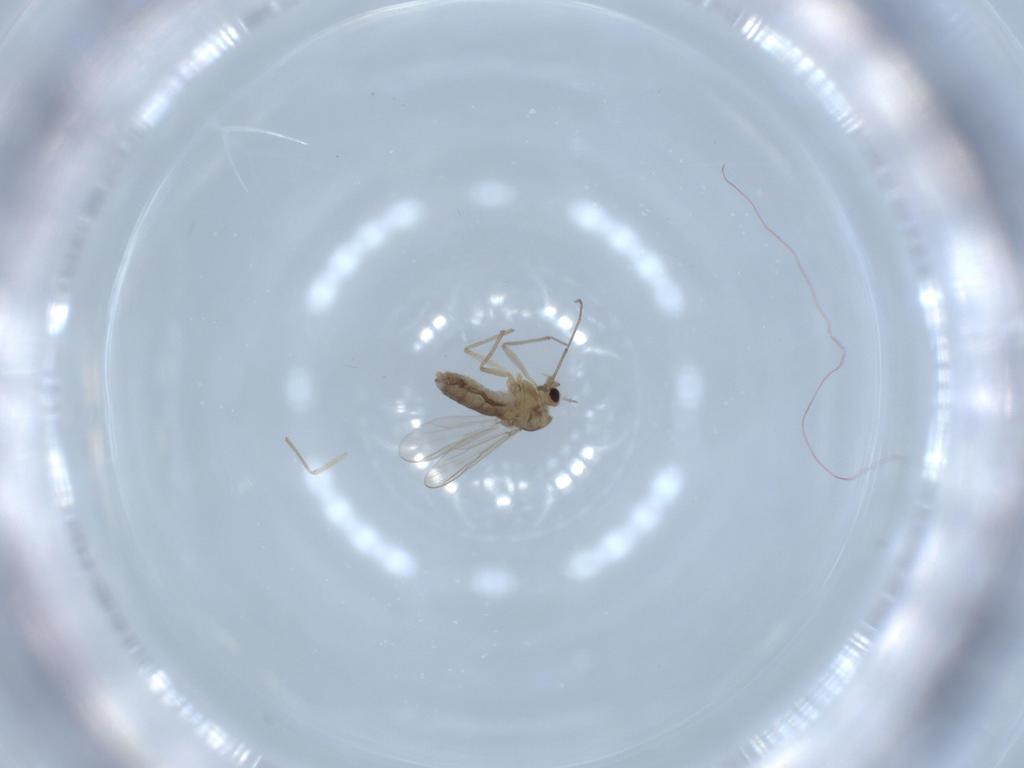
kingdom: Animalia
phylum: Arthropoda
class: Insecta
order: Diptera
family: Chironomidae
